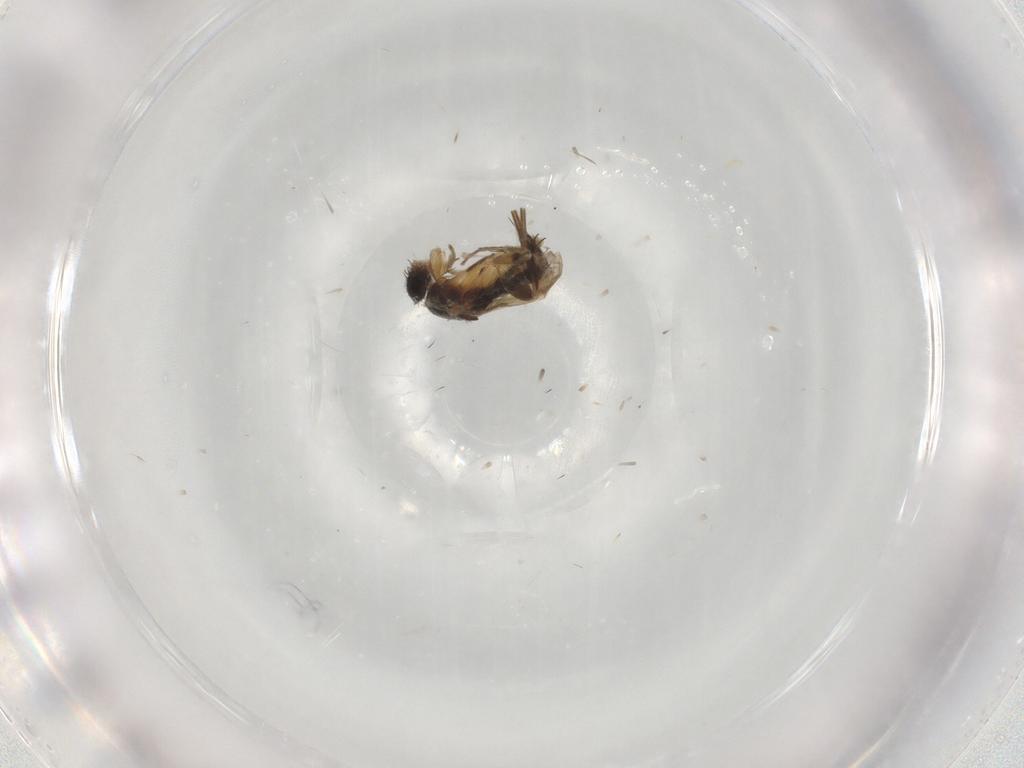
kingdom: Animalia
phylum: Arthropoda
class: Insecta
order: Diptera
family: Bombyliidae
